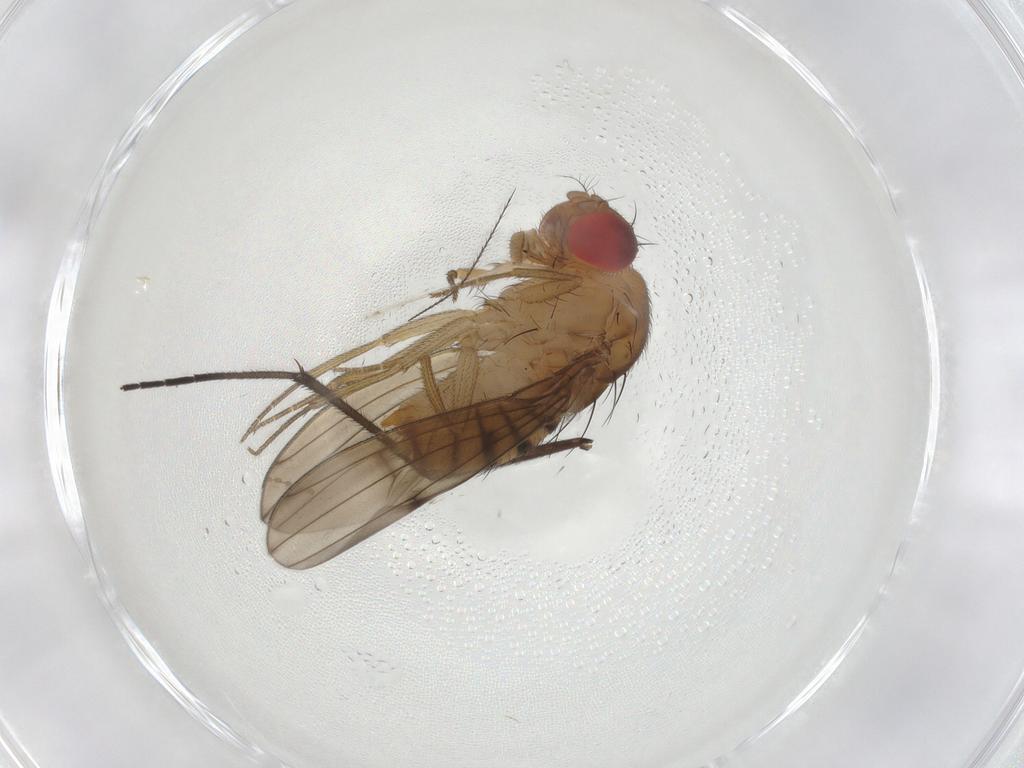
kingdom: Animalia
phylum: Arthropoda
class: Insecta
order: Diptera
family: Drosophilidae
